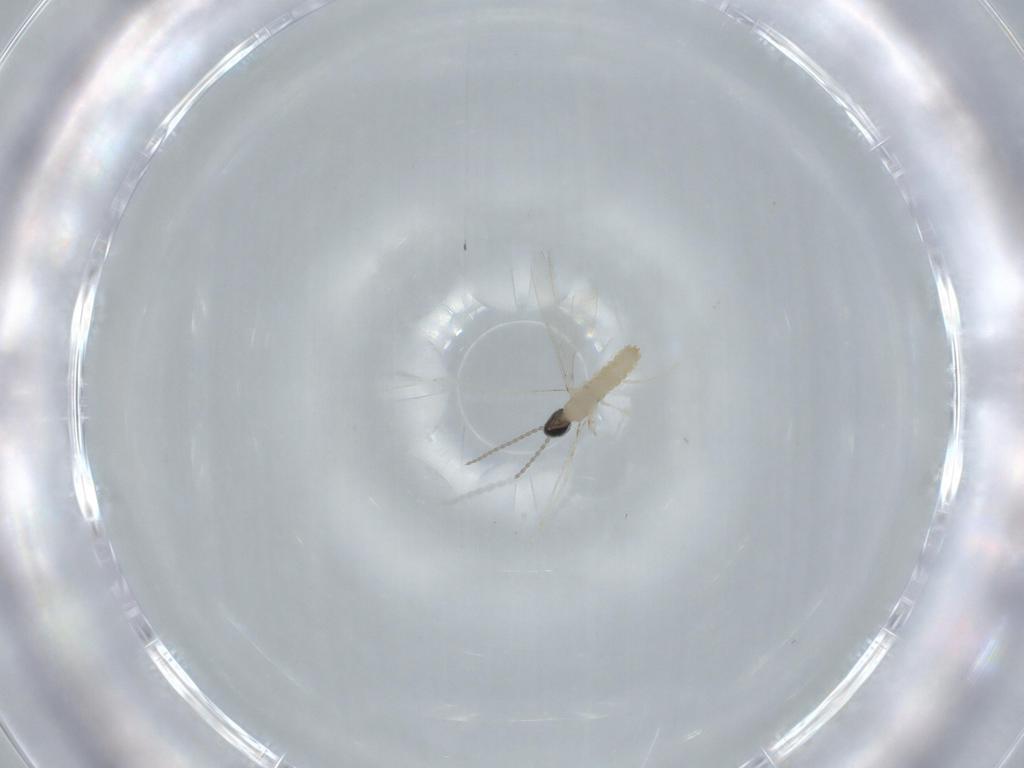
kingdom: Animalia
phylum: Arthropoda
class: Insecta
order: Diptera
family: Cecidomyiidae
